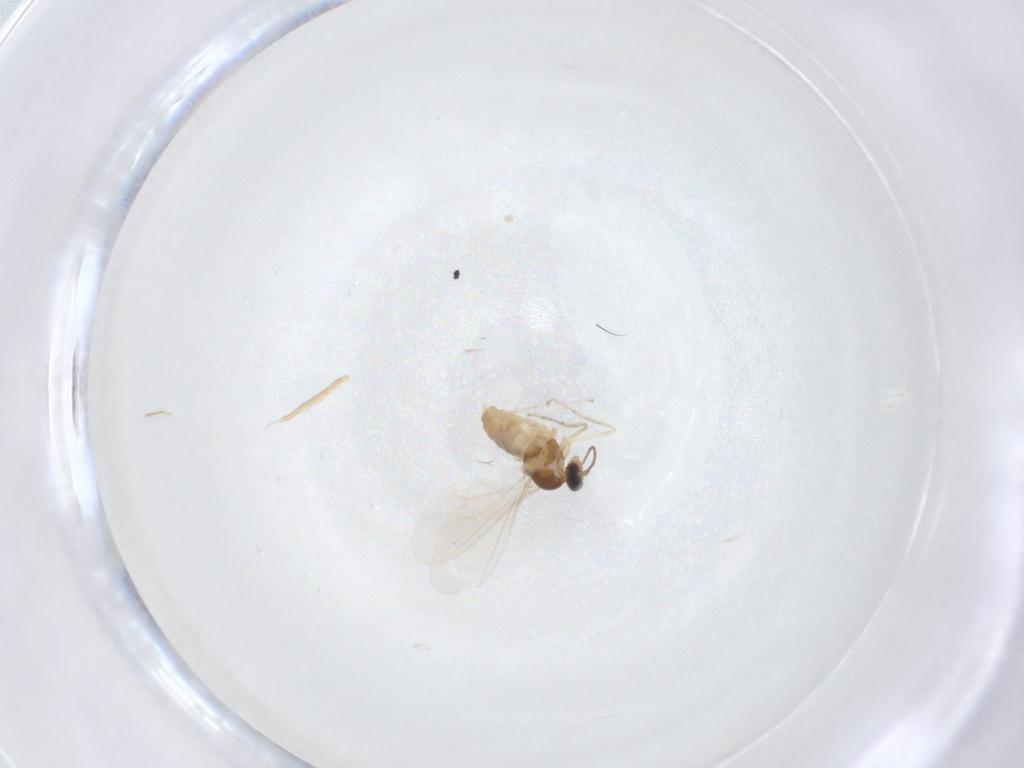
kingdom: Animalia
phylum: Arthropoda
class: Insecta
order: Diptera
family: Cecidomyiidae
